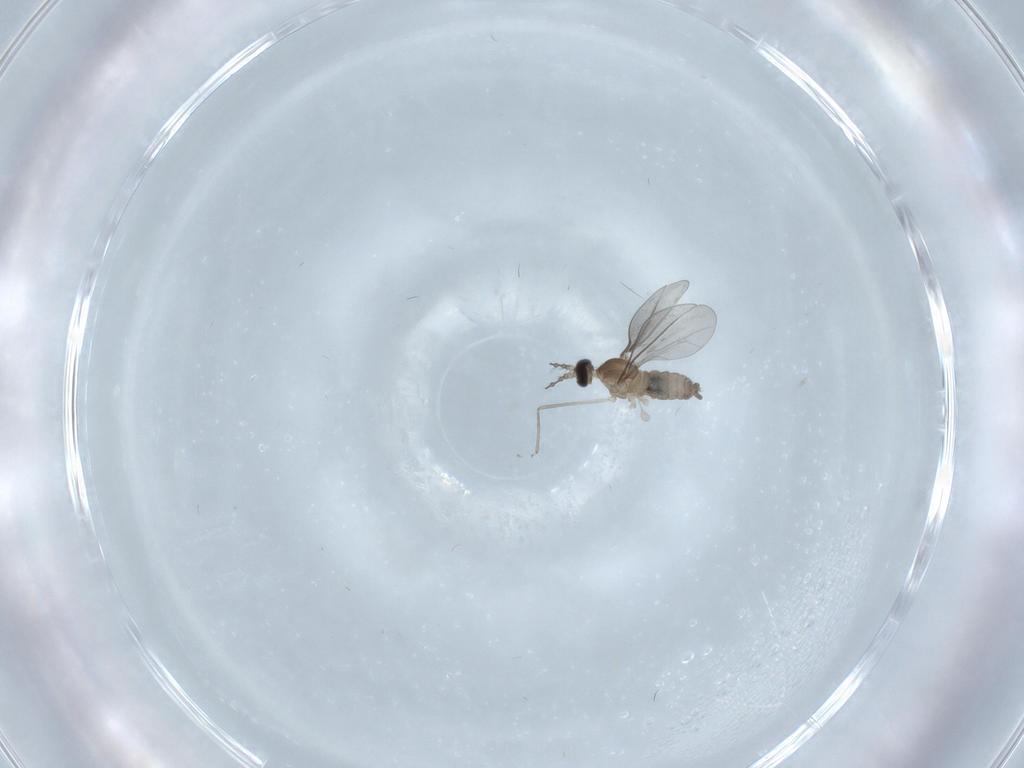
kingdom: Animalia
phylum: Arthropoda
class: Insecta
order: Diptera
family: Cecidomyiidae
